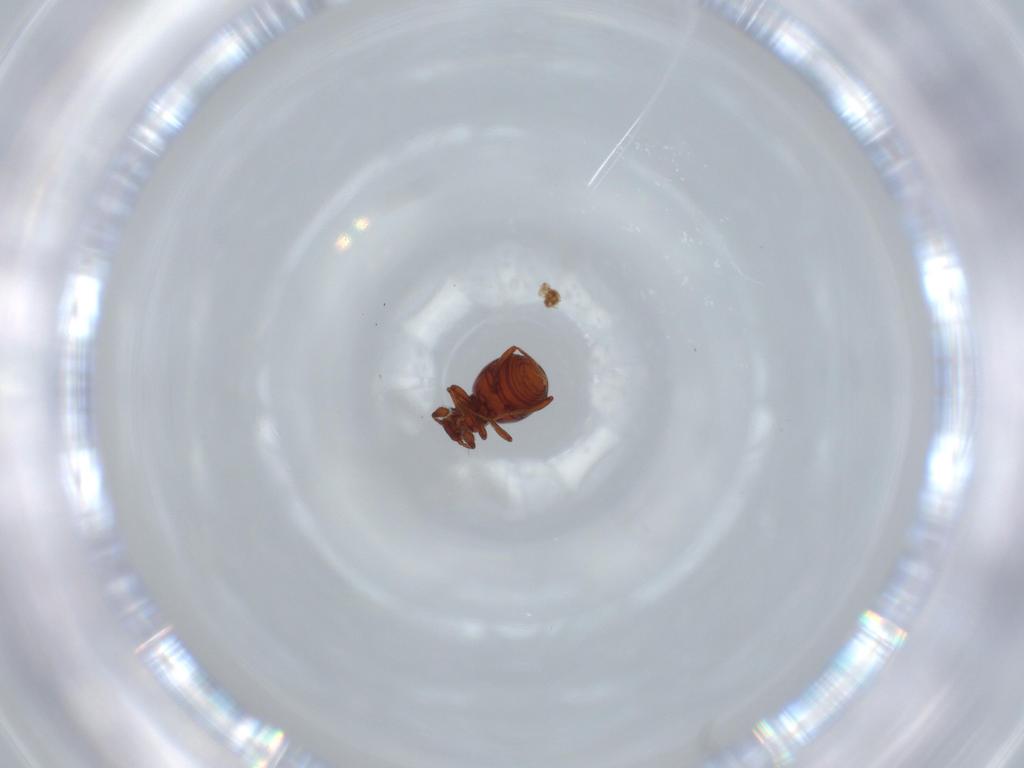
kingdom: Animalia
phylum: Arthropoda
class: Insecta
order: Coleoptera
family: Staphylinidae
